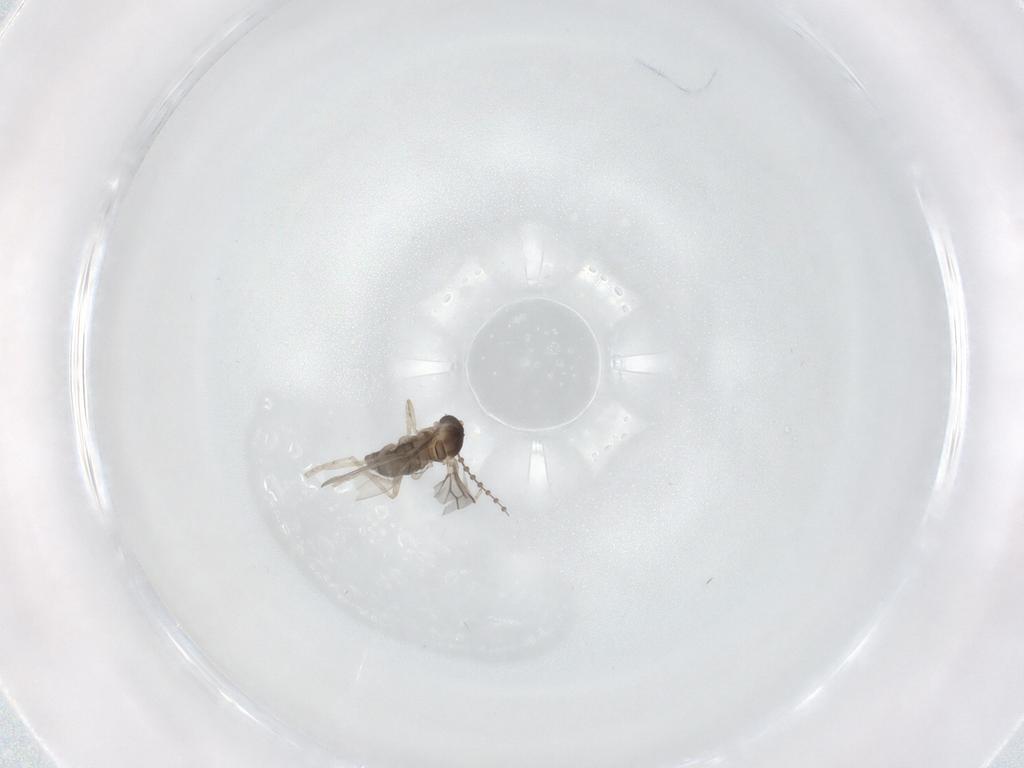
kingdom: Animalia
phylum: Arthropoda
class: Insecta
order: Diptera
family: Cecidomyiidae
